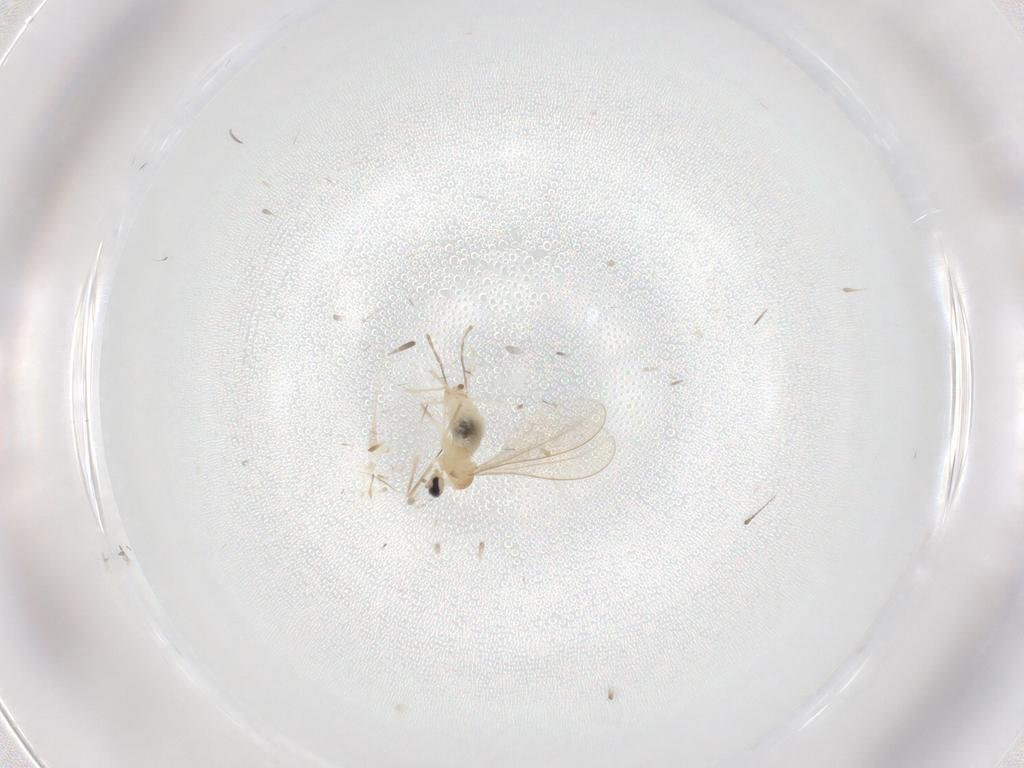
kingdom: Animalia
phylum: Arthropoda
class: Insecta
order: Diptera
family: Cecidomyiidae
